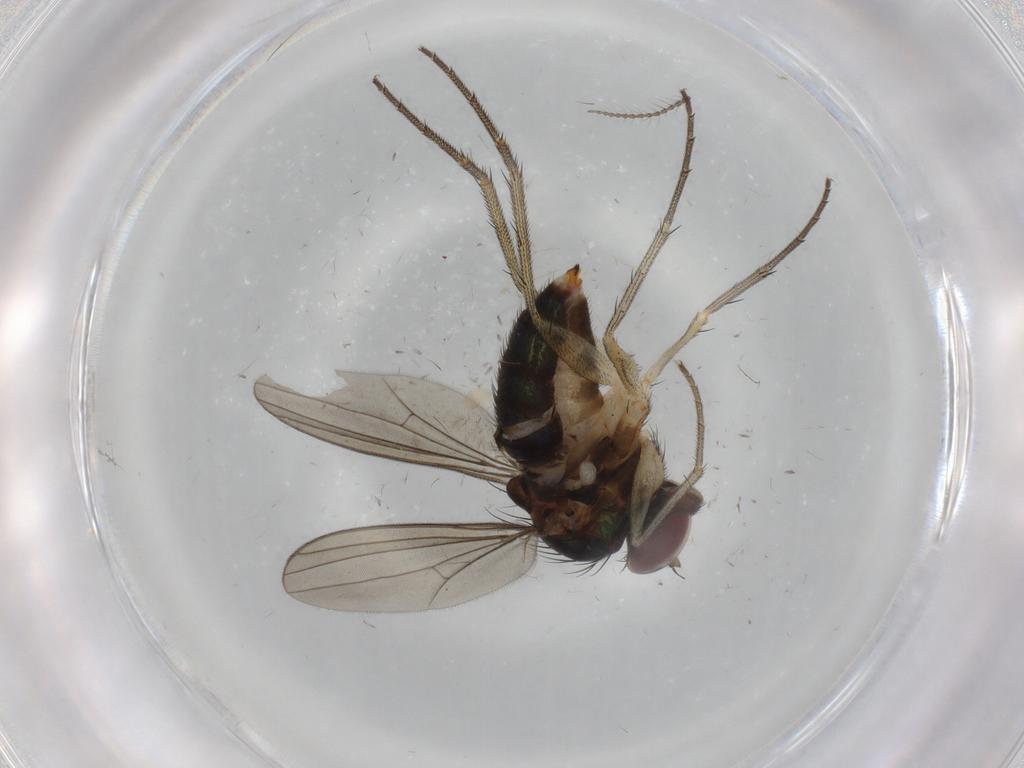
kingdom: Animalia
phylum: Arthropoda
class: Insecta
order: Diptera
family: Dolichopodidae
